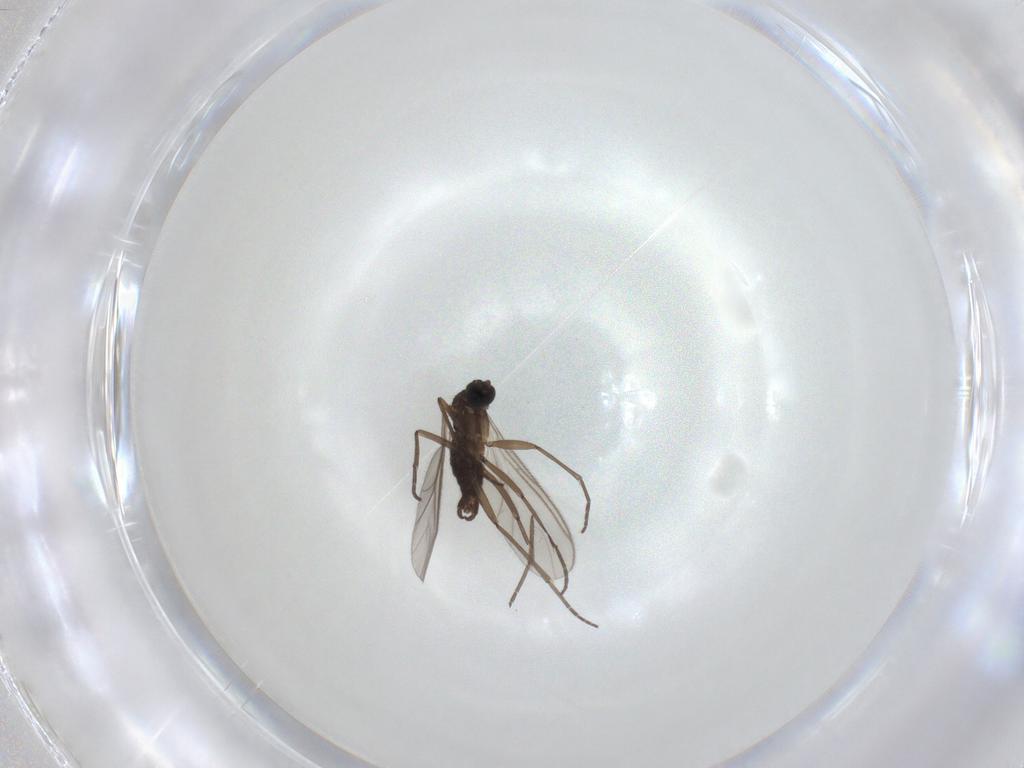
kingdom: Animalia
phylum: Arthropoda
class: Insecta
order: Diptera
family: Sciaridae
